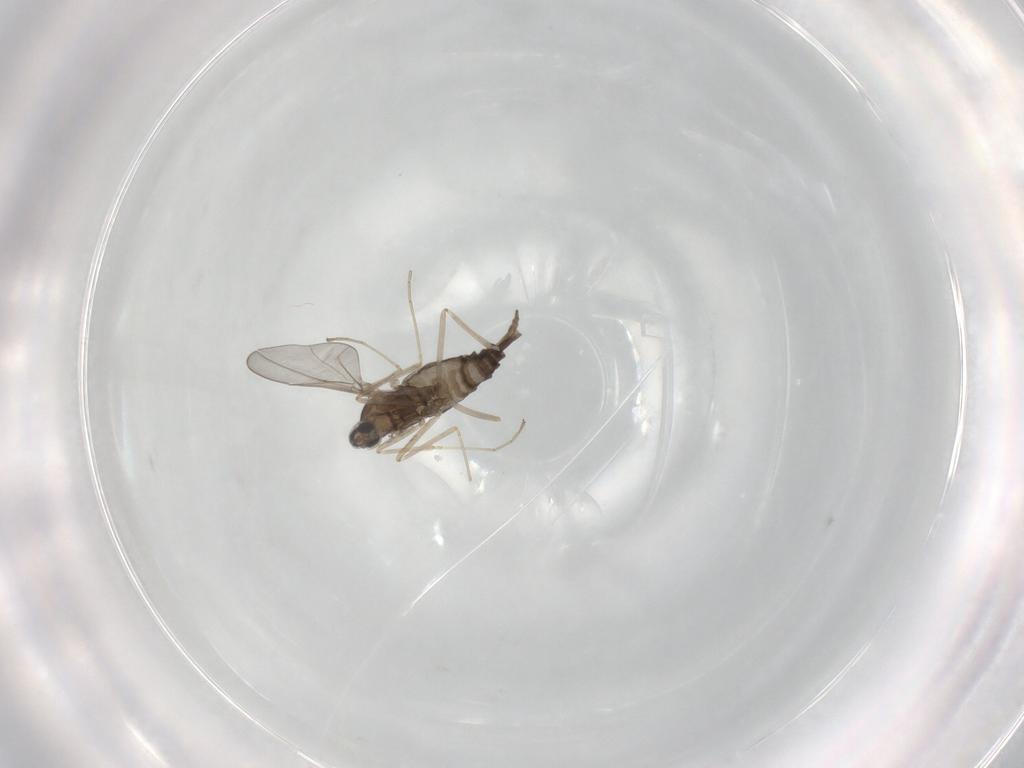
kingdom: Animalia
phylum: Arthropoda
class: Insecta
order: Diptera
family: Cecidomyiidae
